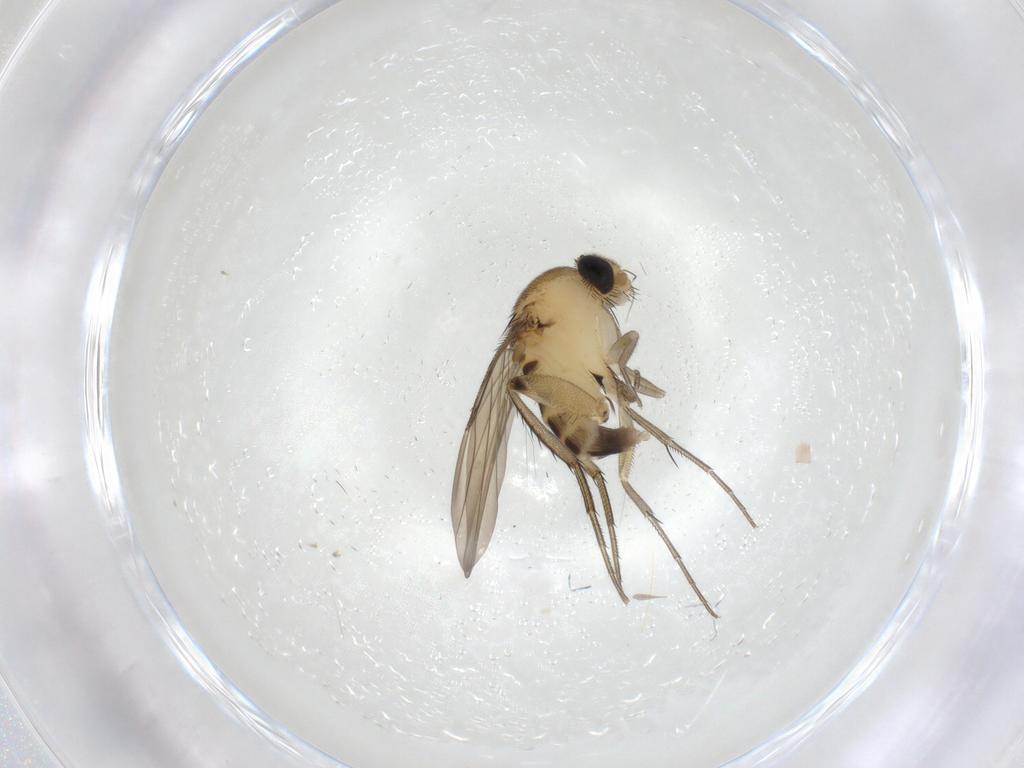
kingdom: Animalia
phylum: Arthropoda
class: Insecta
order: Diptera
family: Phoridae
